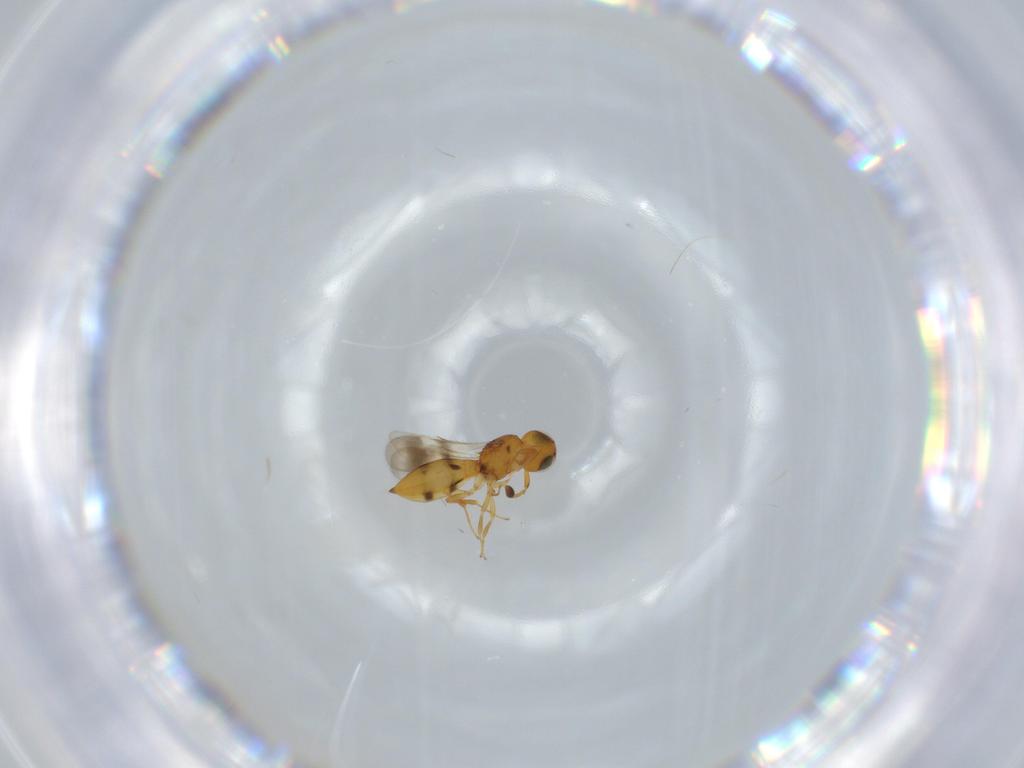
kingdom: Animalia
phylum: Arthropoda
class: Insecta
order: Hymenoptera
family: Scelionidae
